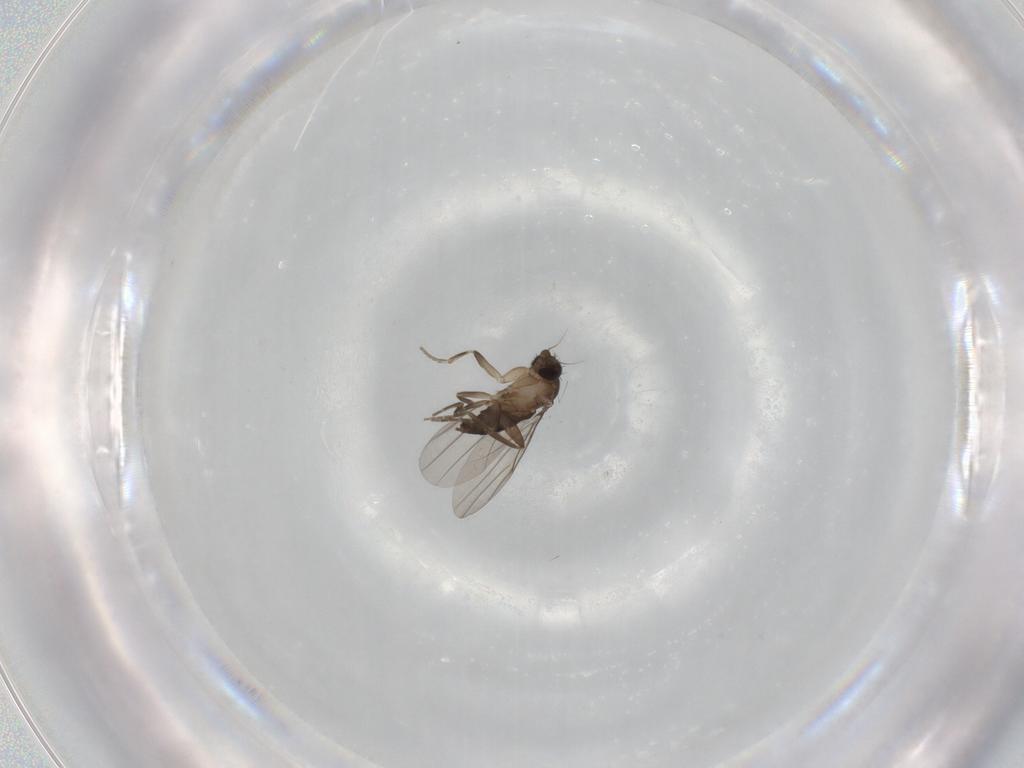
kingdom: Animalia
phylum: Arthropoda
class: Insecta
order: Diptera
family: Phoridae
